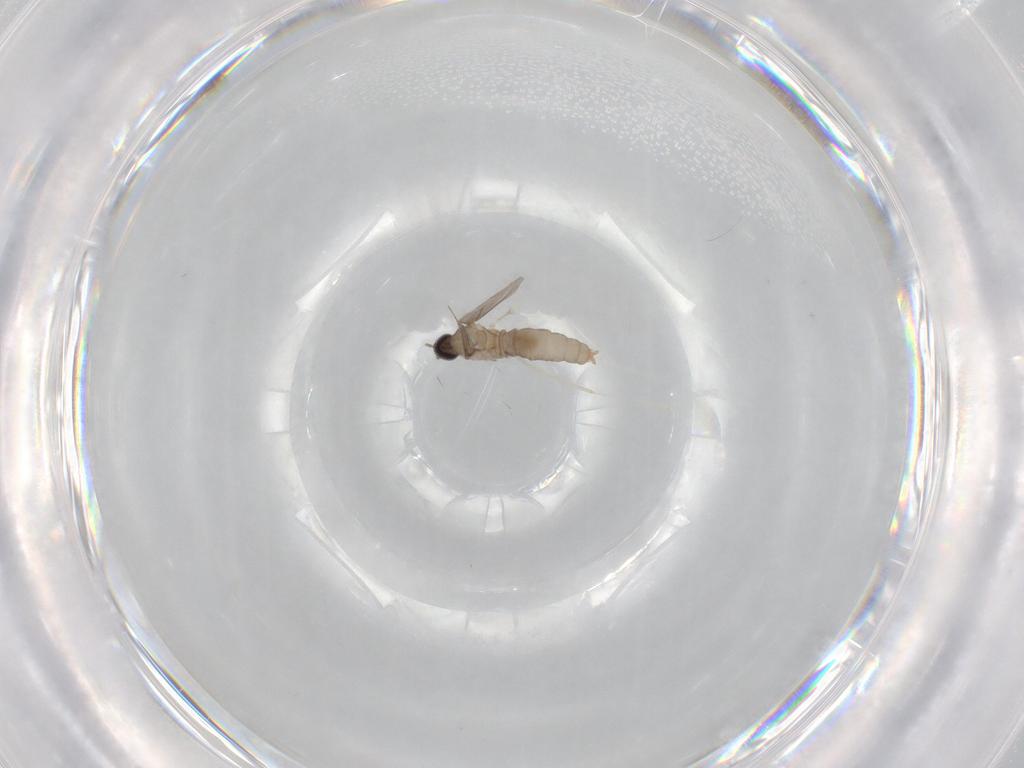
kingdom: Animalia
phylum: Arthropoda
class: Insecta
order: Diptera
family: Cecidomyiidae
